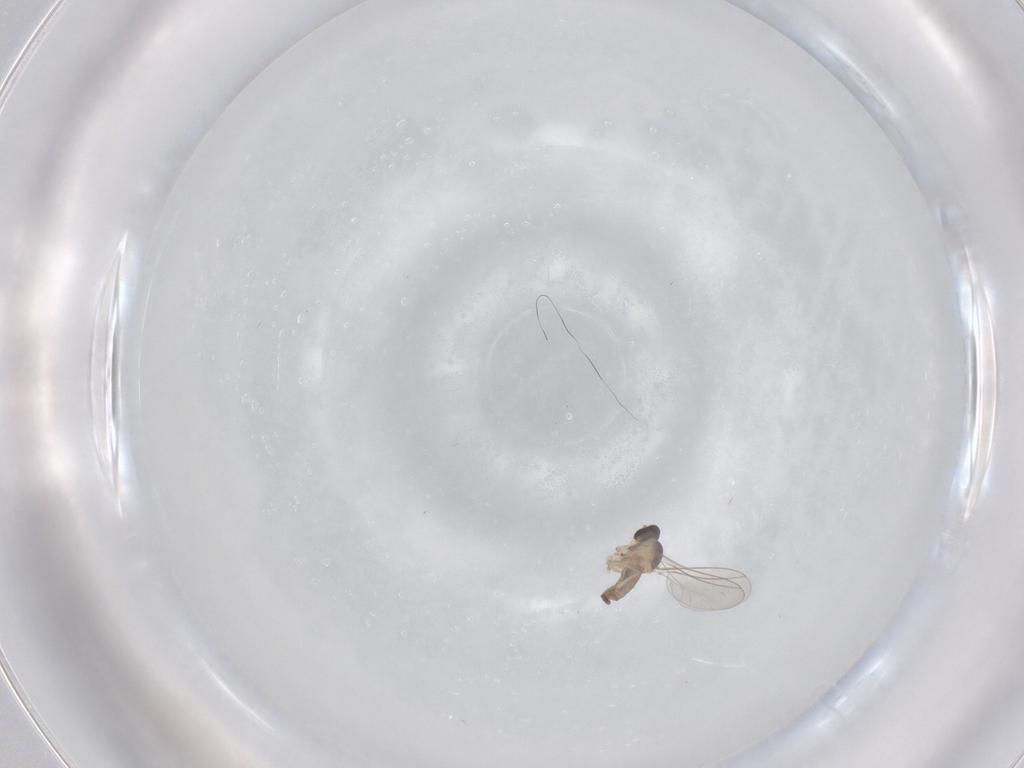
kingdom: Animalia
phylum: Arthropoda
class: Insecta
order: Diptera
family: Cecidomyiidae
